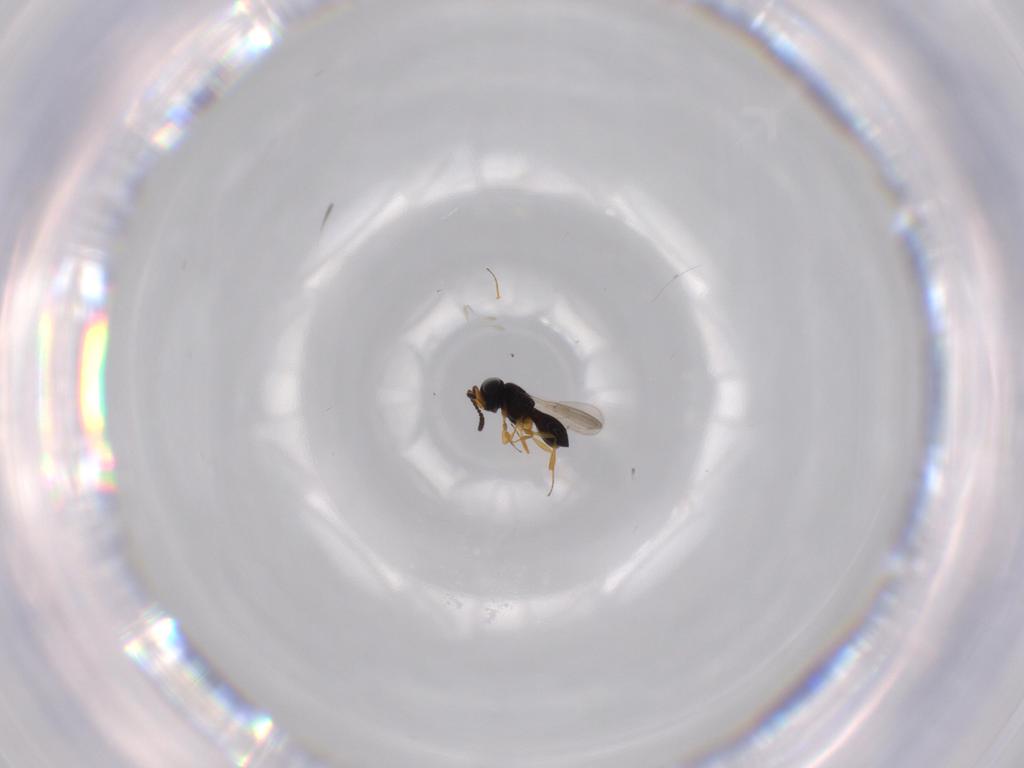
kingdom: Animalia
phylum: Arthropoda
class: Insecta
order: Hymenoptera
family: Scelionidae
